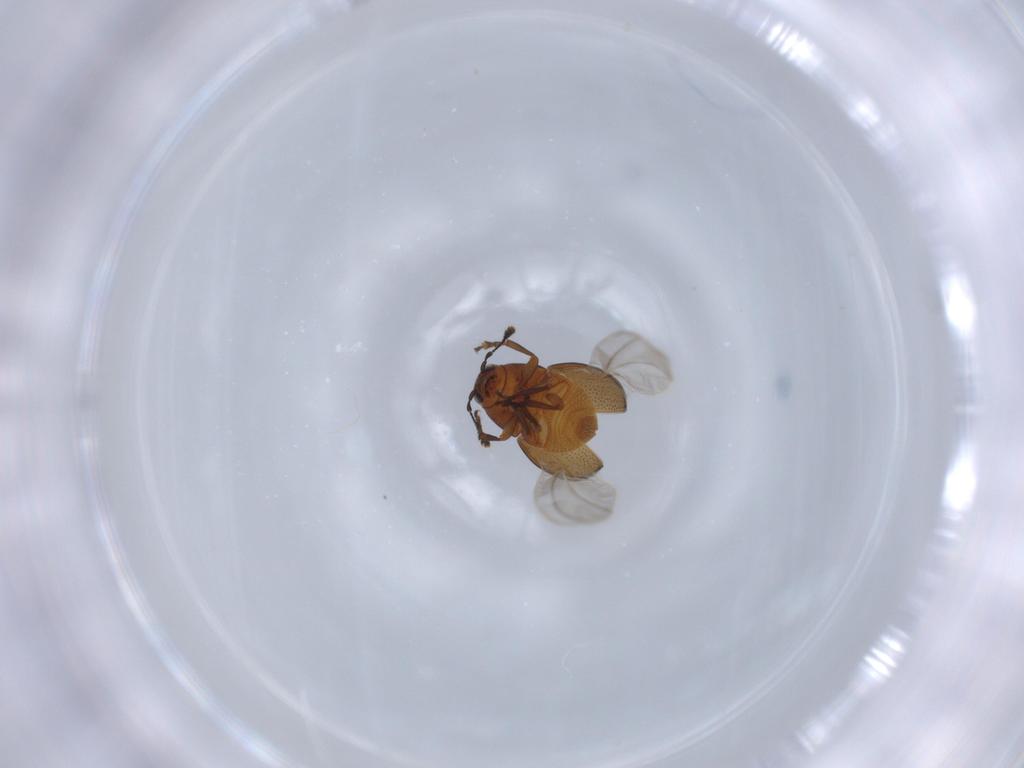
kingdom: Animalia
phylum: Arthropoda
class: Insecta
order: Coleoptera
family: Anthribidae
